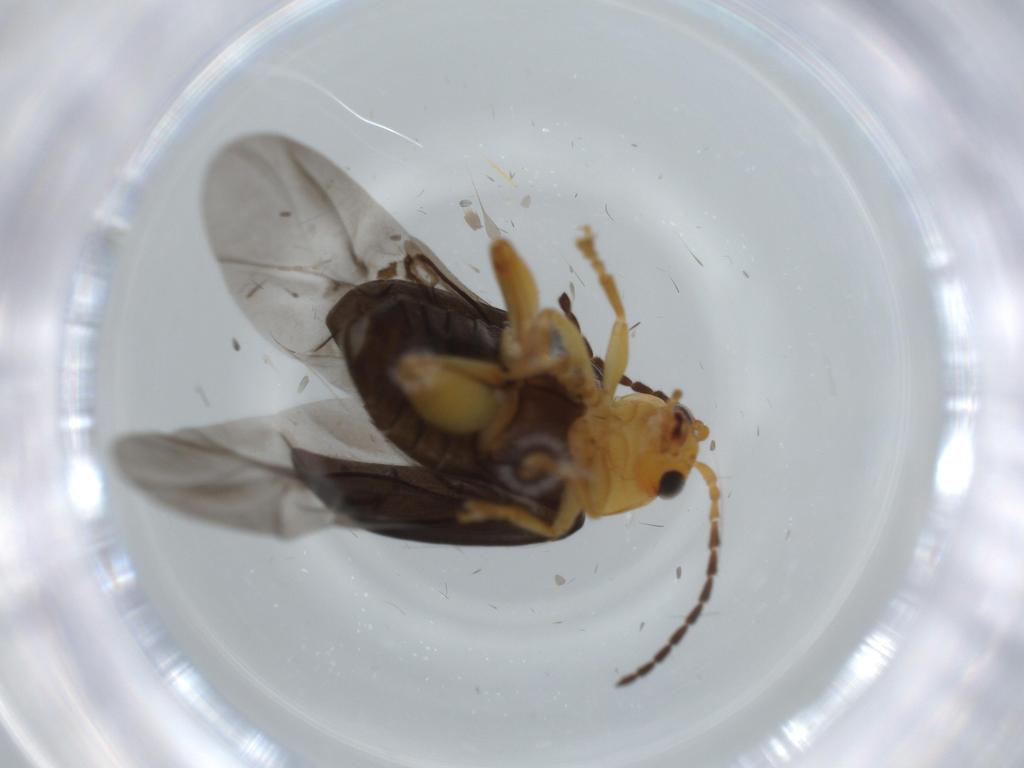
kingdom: Animalia
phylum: Arthropoda
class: Insecta
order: Coleoptera
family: Chrysomelidae
